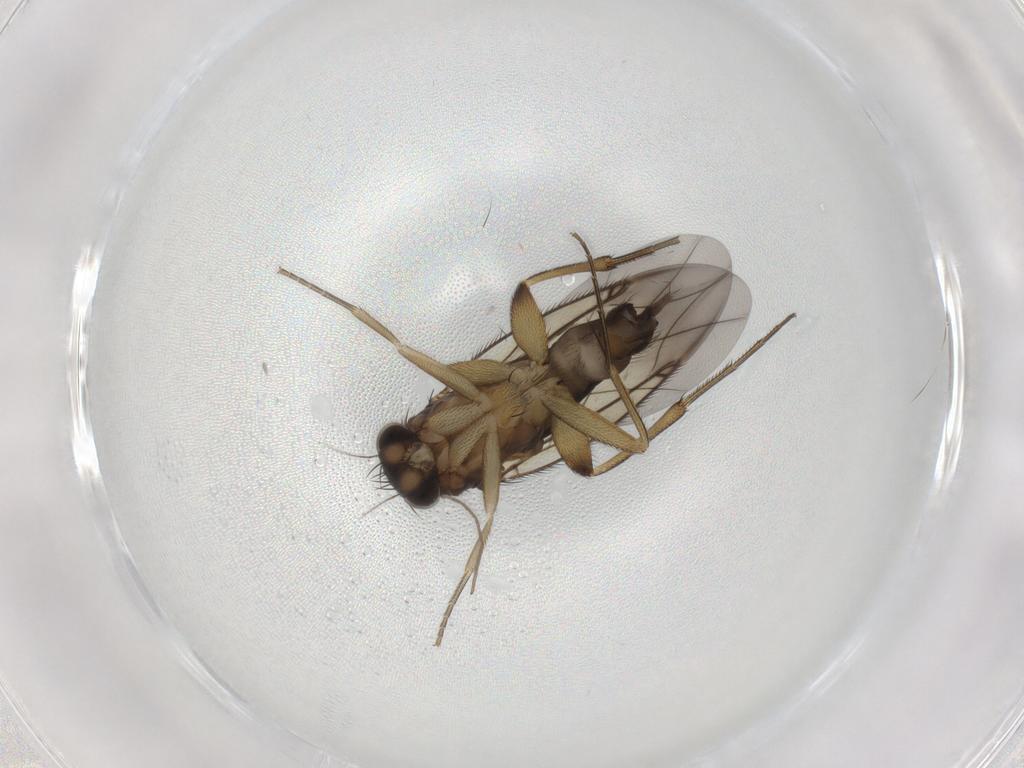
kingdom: Animalia
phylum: Arthropoda
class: Insecta
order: Diptera
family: Phoridae
